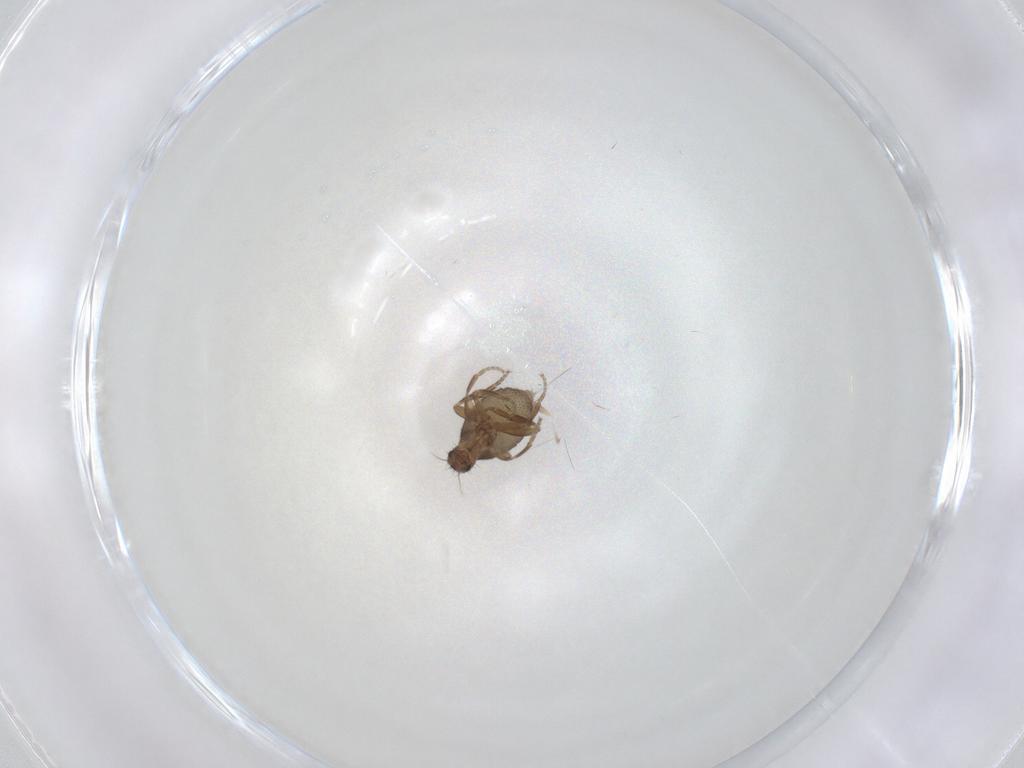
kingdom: Animalia
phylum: Arthropoda
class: Insecta
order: Diptera
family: Phoridae
